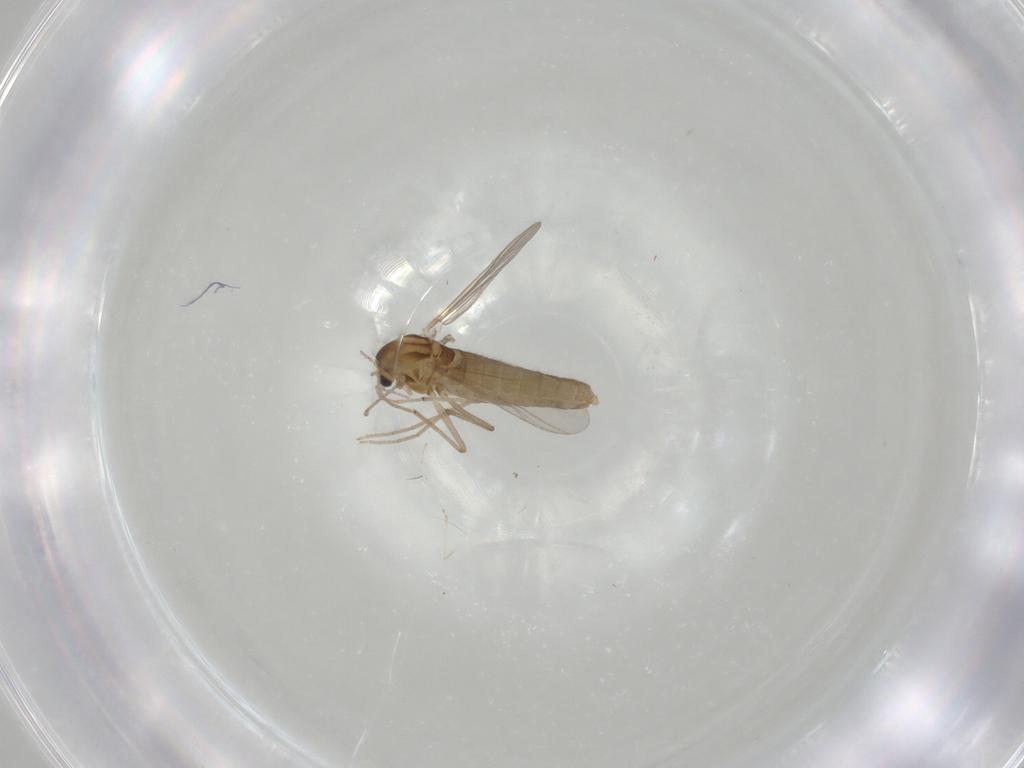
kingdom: Animalia
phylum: Arthropoda
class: Insecta
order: Diptera
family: Chironomidae
